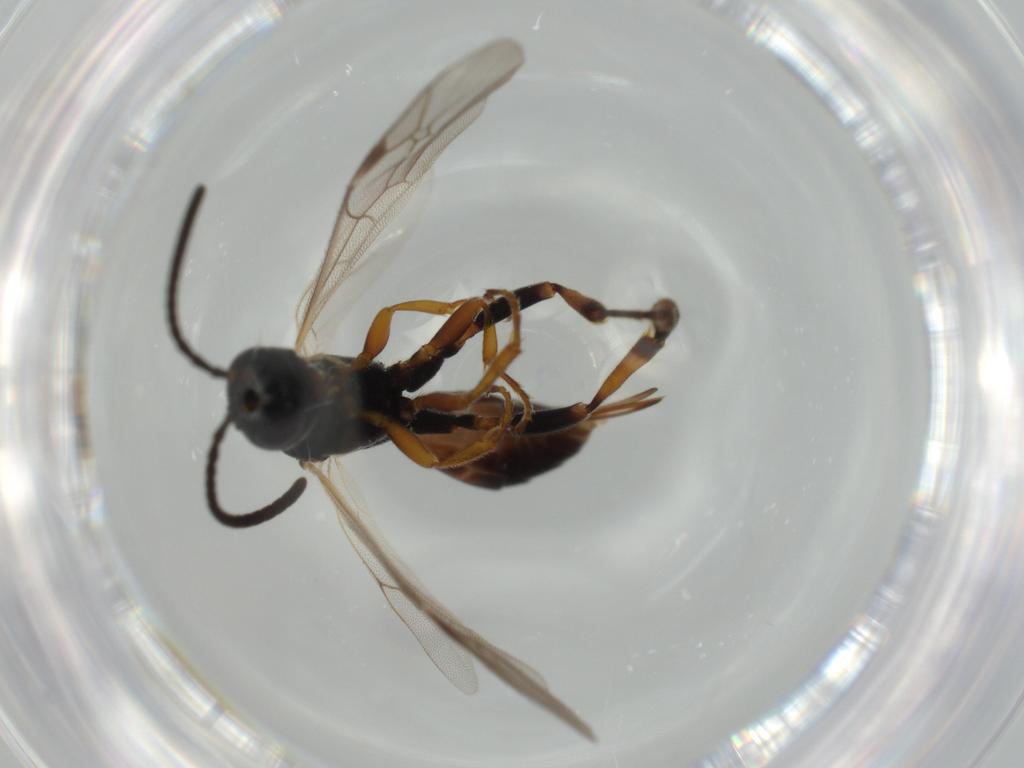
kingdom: Animalia
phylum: Arthropoda
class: Insecta
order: Hymenoptera
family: Ichneumonidae
